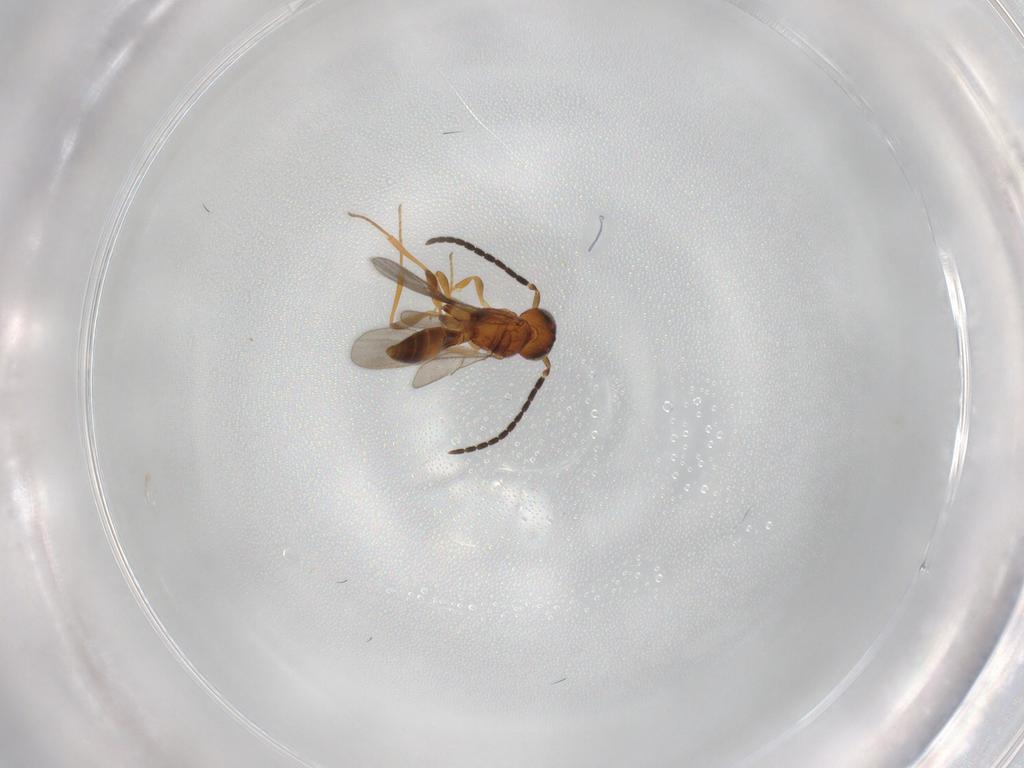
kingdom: Animalia
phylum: Arthropoda
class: Insecta
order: Hymenoptera
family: Scelionidae
